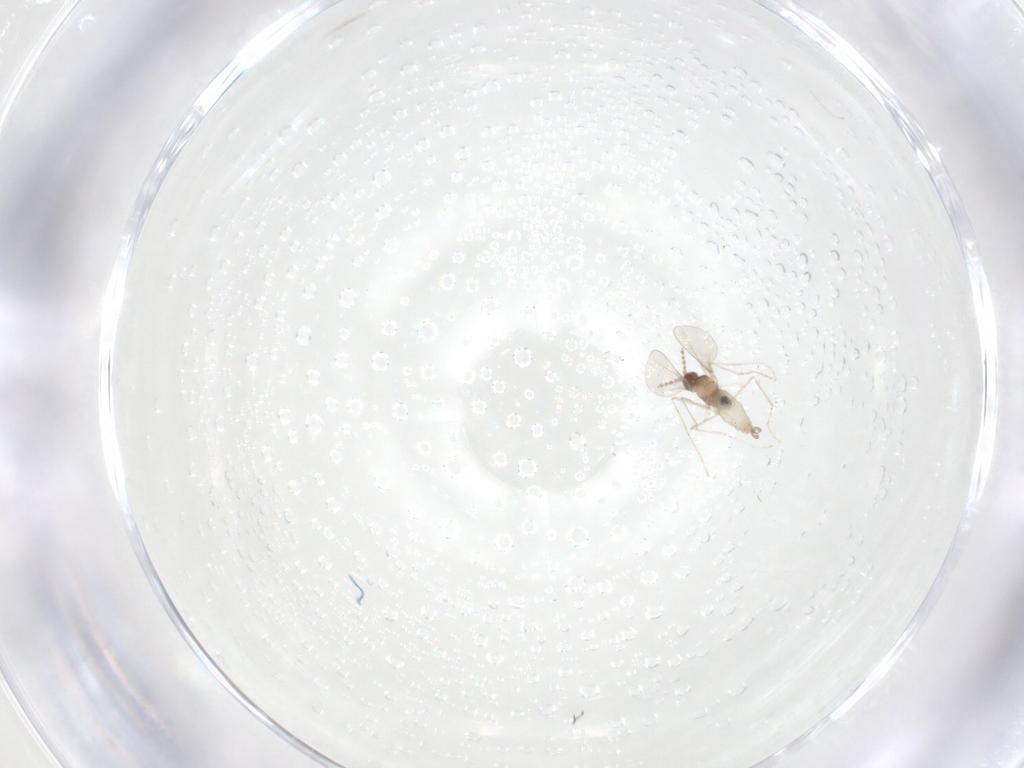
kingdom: Animalia
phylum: Arthropoda
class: Insecta
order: Diptera
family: Cecidomyiidae
